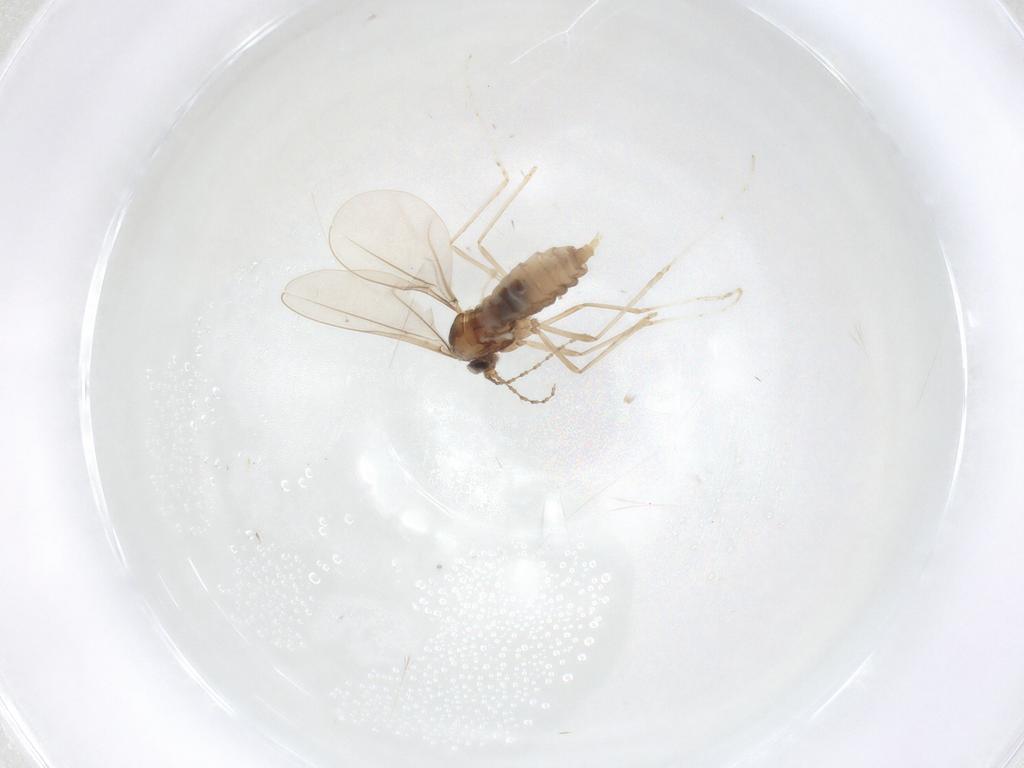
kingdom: Animalia
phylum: Arthropoda
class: Insecta
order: Diptera
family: Cecidomyiidae
